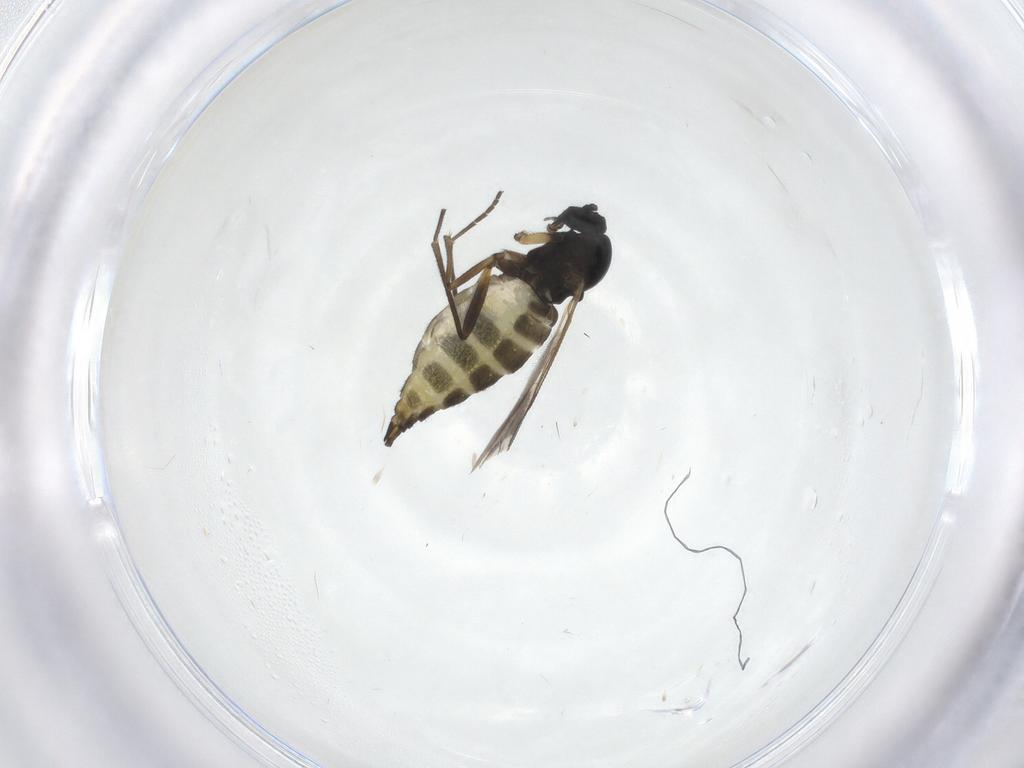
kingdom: Animalia
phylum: Arthropoda
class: Insecta
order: Diptera
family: Sciaridae
